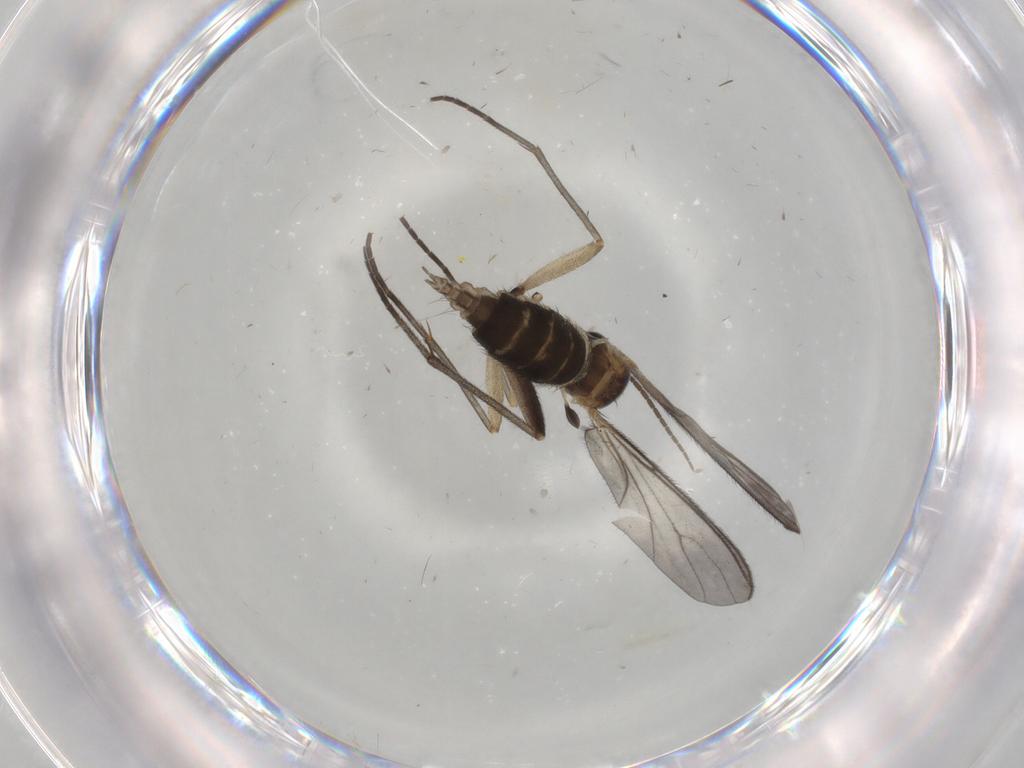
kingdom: Animalia
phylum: Arthropoda
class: Insecta
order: Diptera
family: Sciaridae
